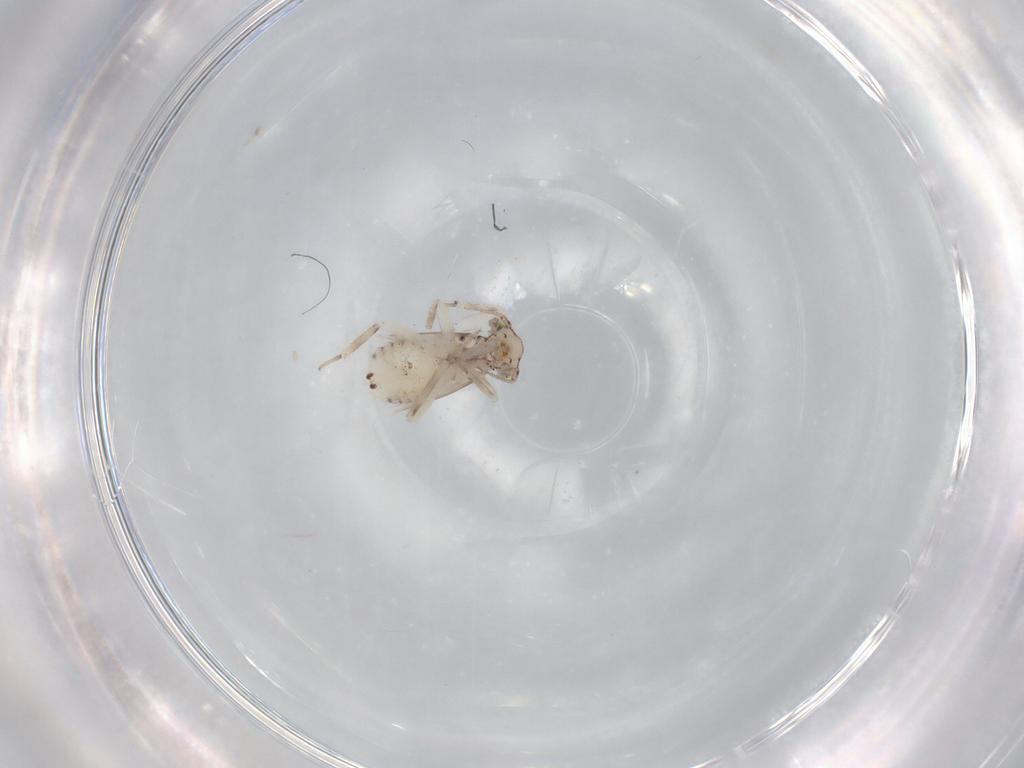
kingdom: Animalia
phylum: Arthropoda
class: Insecta
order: Psocodea
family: Lepidopsocidae
